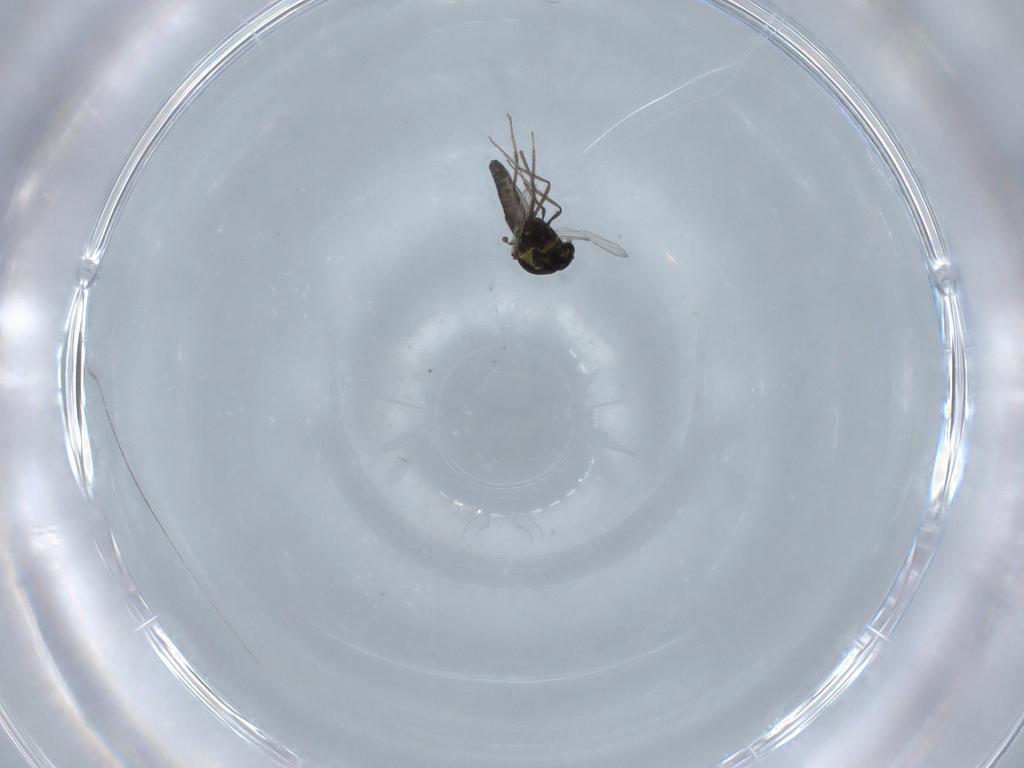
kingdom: Animalia
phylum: Arthropoda
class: Insecta
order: Diptera
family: Ceratopogonidae
